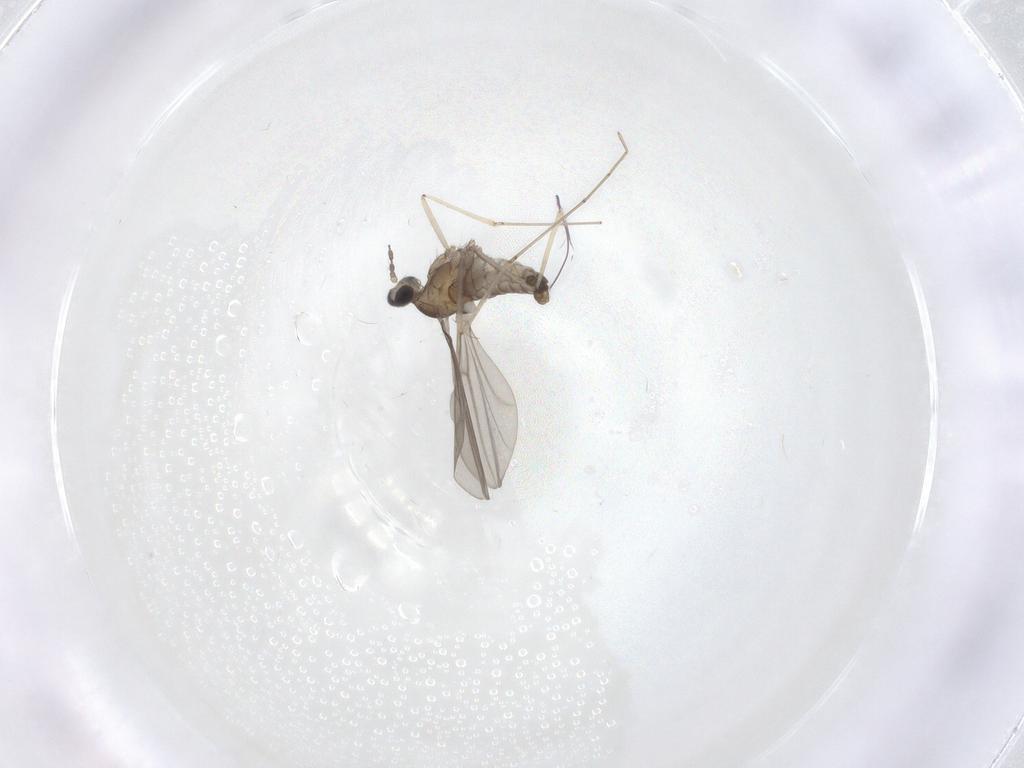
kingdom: Animalia
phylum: Arthropoda
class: Insecta
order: Diptera
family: Cecidomyiidae
